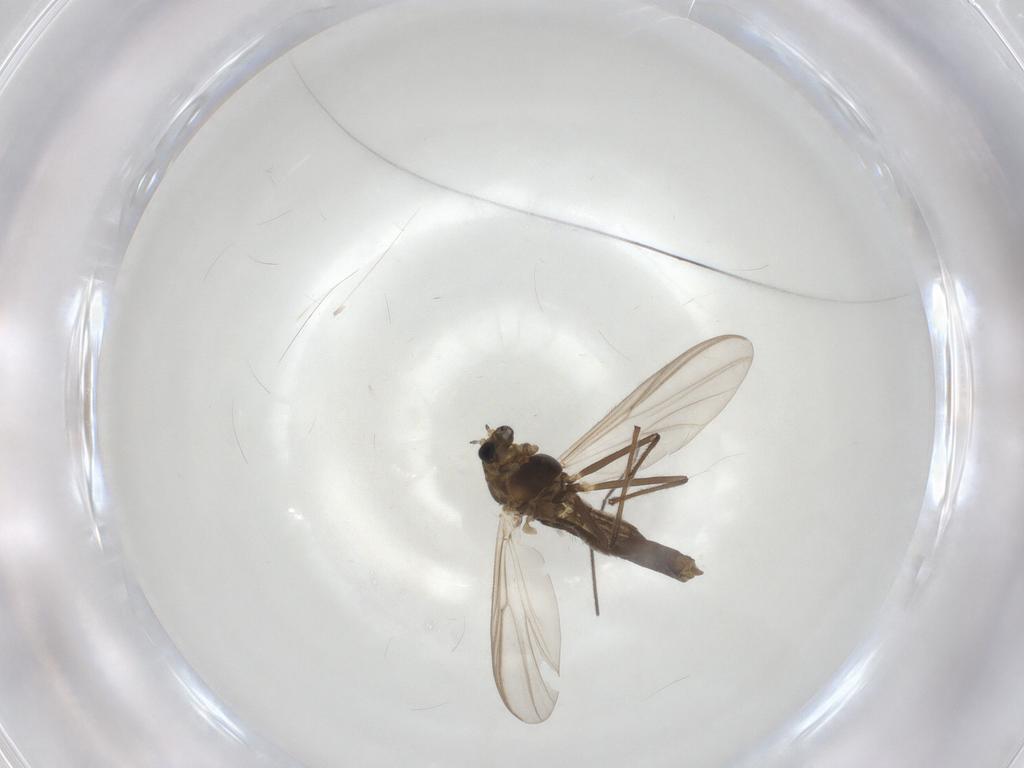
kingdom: Animalia
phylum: Arthropoda
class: Insecta
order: Diptera
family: Chironomidae
